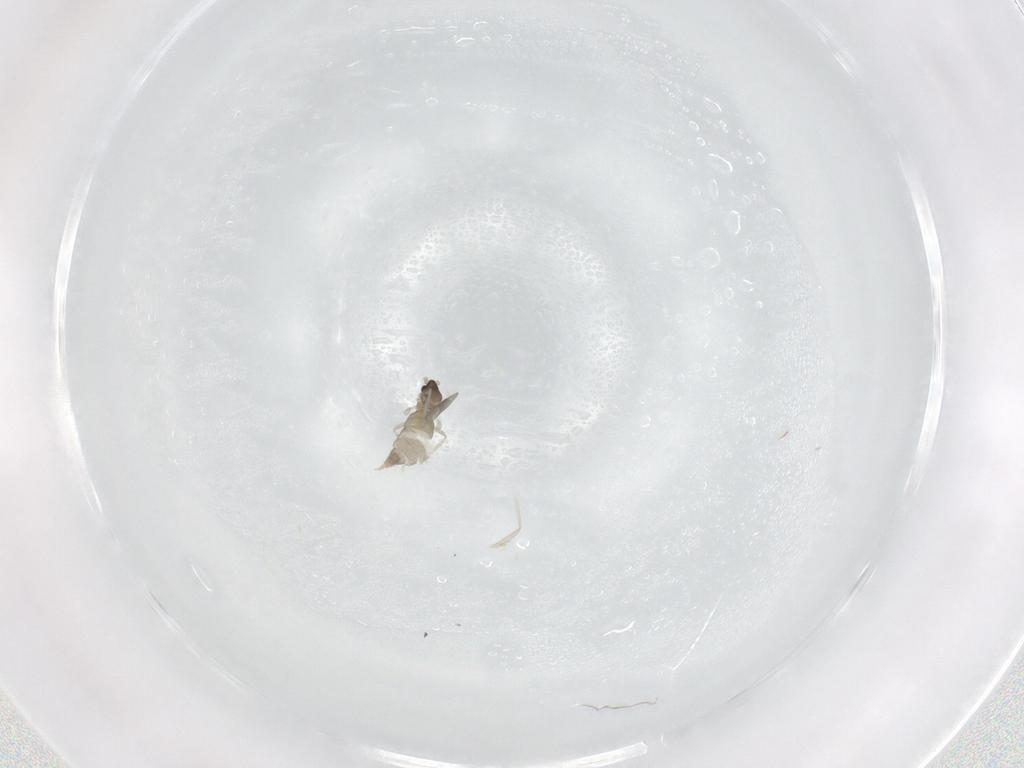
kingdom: Animalia
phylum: Arthropoda
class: Insecta
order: Diptera
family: Cecidomyiidae
